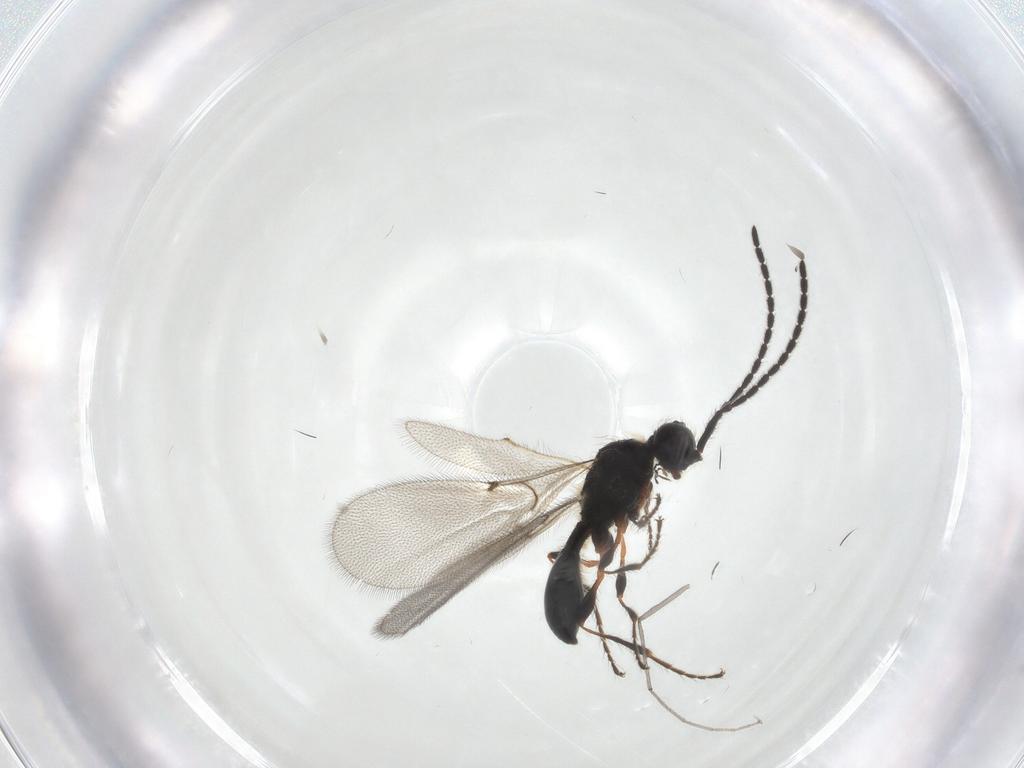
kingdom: Animalia
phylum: Arthropoda
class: Insecta
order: Hymenoptera
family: Diapriidae
